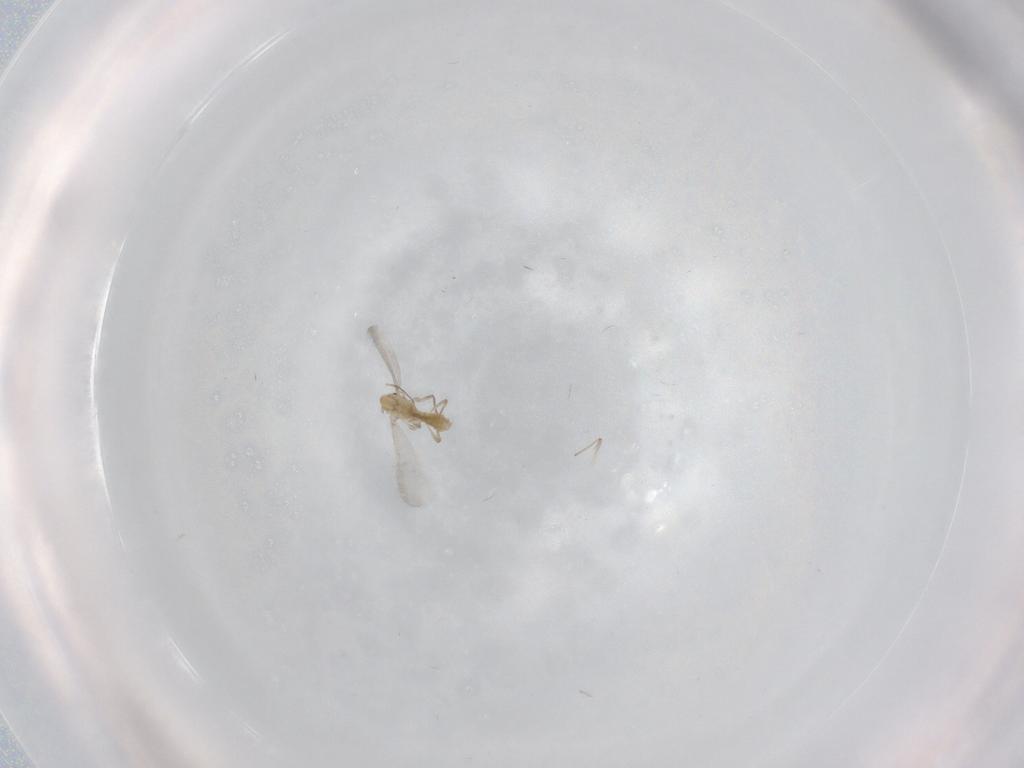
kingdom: Animalia
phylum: Arthropoda
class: Insecta
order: Diptera
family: Chironomidae
